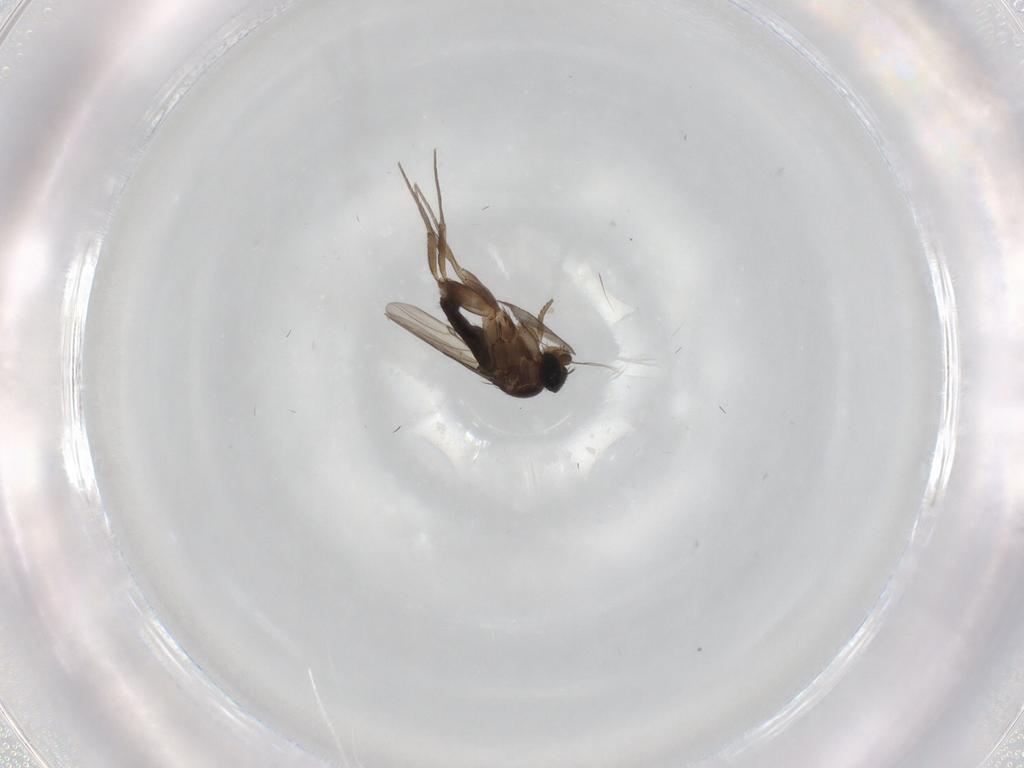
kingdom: Animalia
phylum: Arthropoda
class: Insecta
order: Diptera
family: Phoridae
